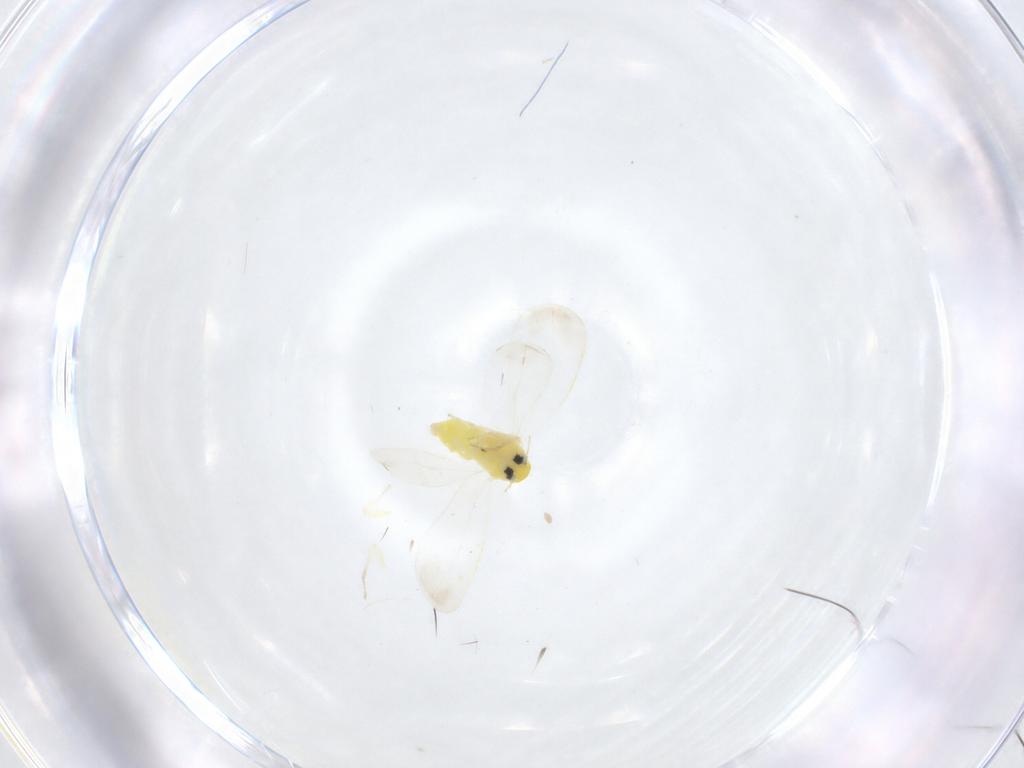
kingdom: Animalia
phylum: Arthropoda
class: Insecta
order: Hemiptera
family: Aleyrodidae
